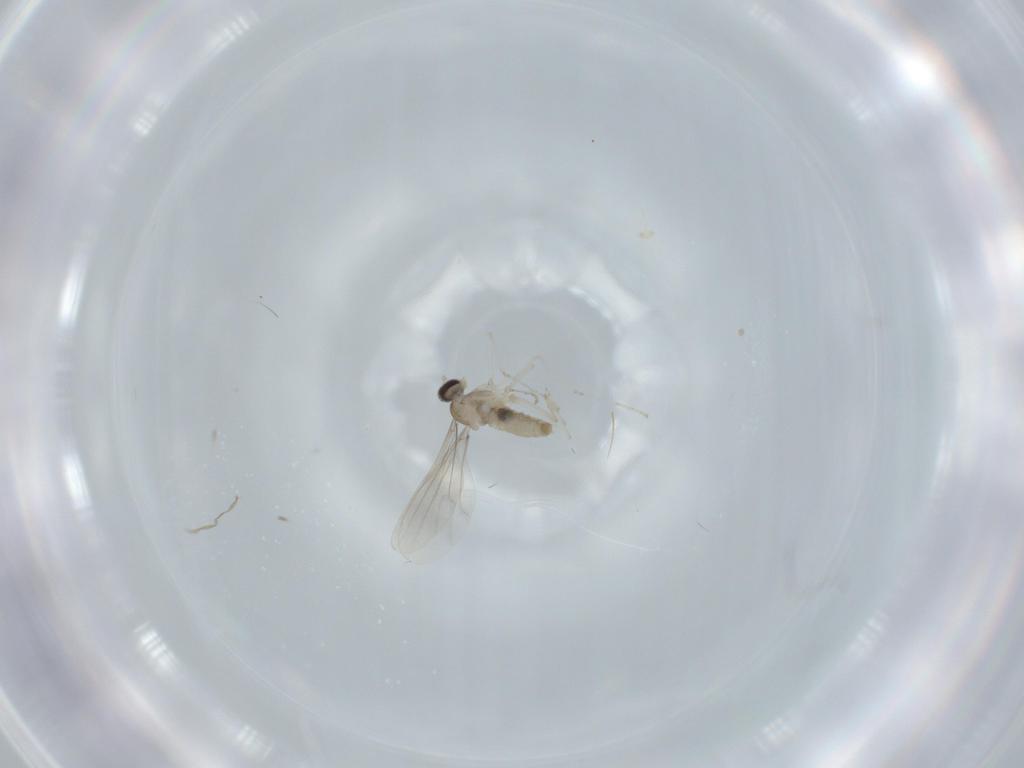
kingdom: Animalia
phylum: Arthropoda
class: Insecta
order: Diptera
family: Cecidomyiidae
